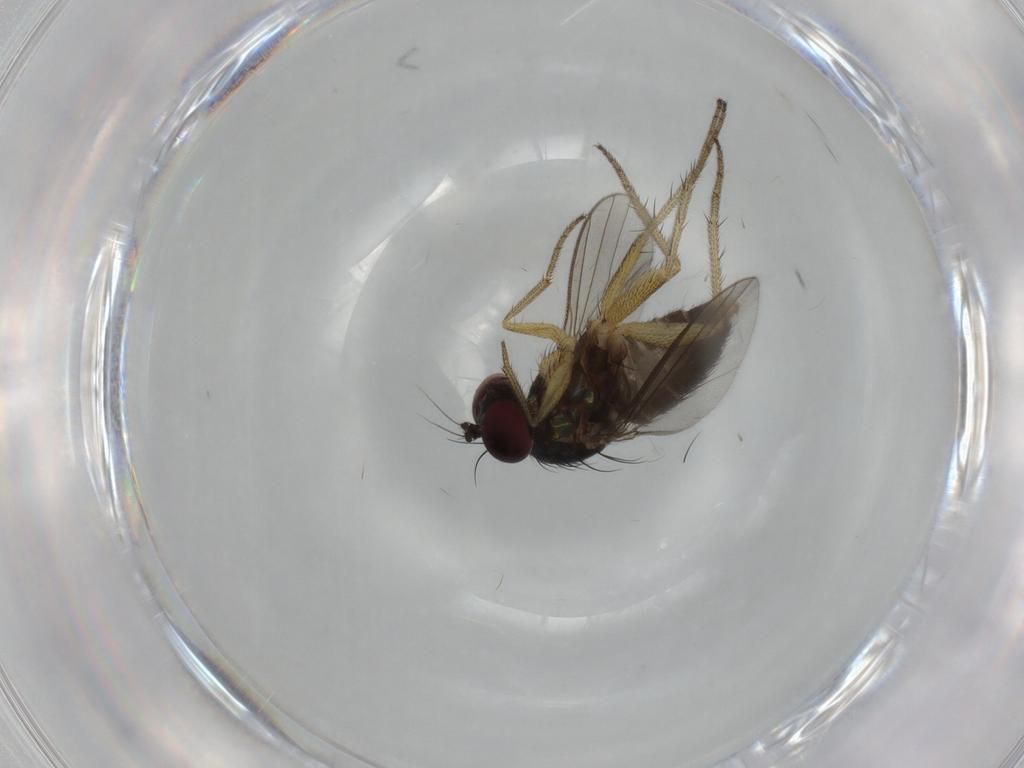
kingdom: Animalia
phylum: Arthropoda
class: Insecta
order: Diptera
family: Dolichopodidae
